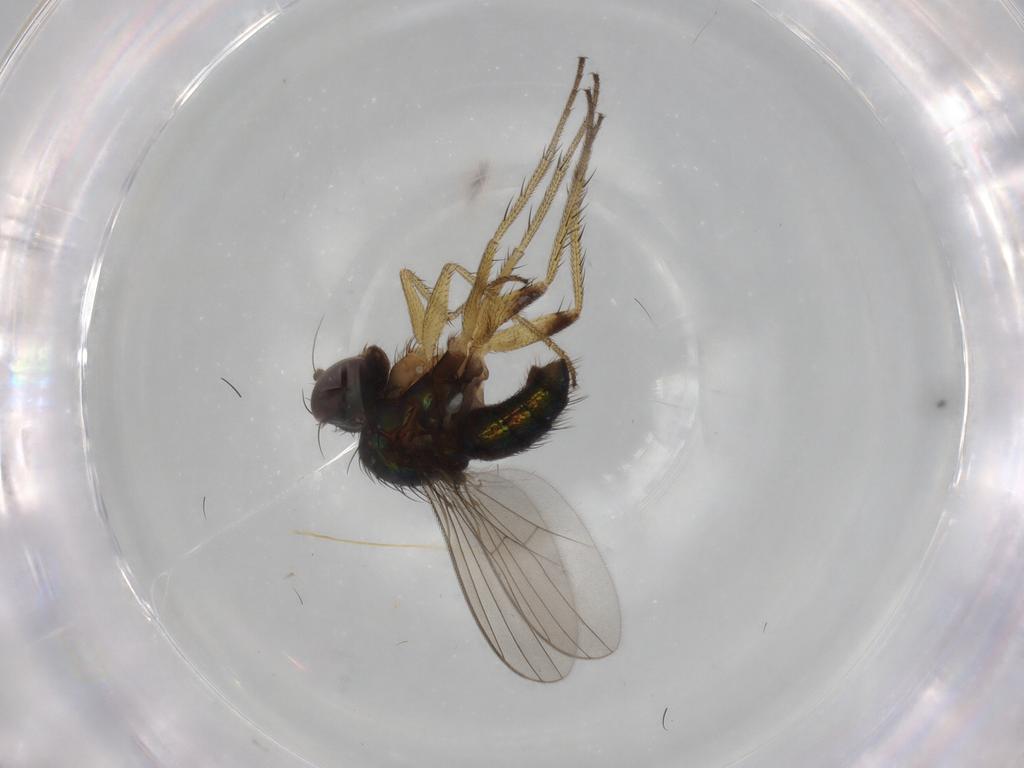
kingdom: Animalia
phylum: Arthropoda
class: Insecta
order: Diptera
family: Dolichopodidae
